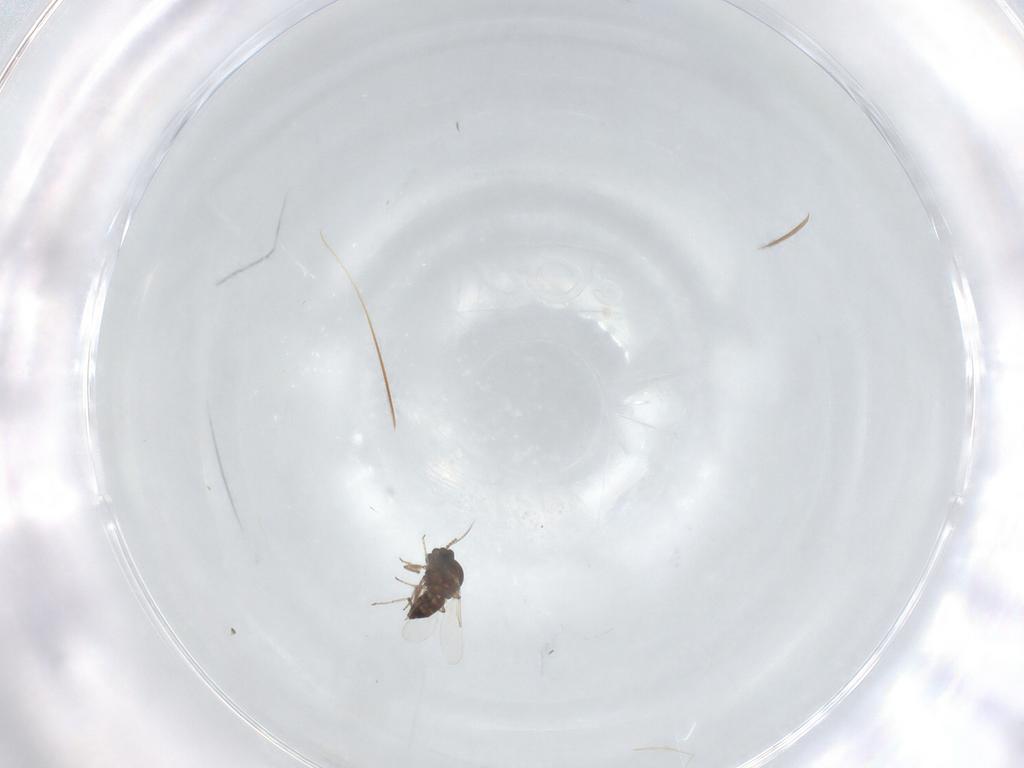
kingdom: Animalia
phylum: Arthropoda
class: Insecta
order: Diptera
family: Ceratopogonidae
